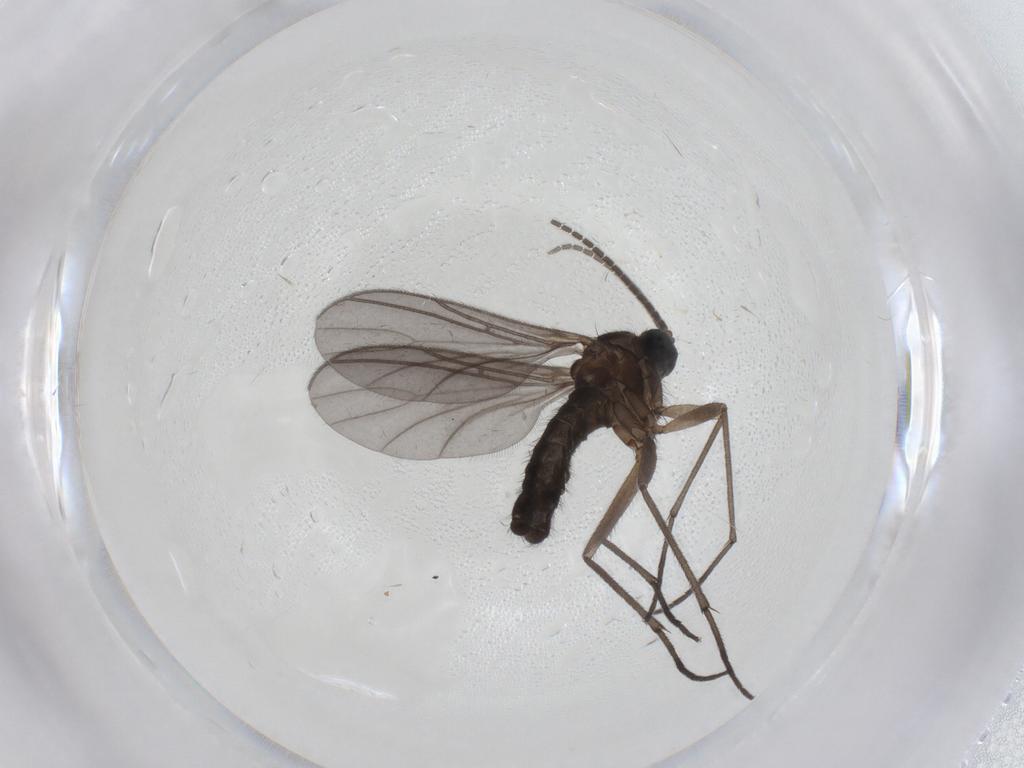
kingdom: Animalia
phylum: Arthropoda
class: Insecta
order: Diptera
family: Sciaridae
